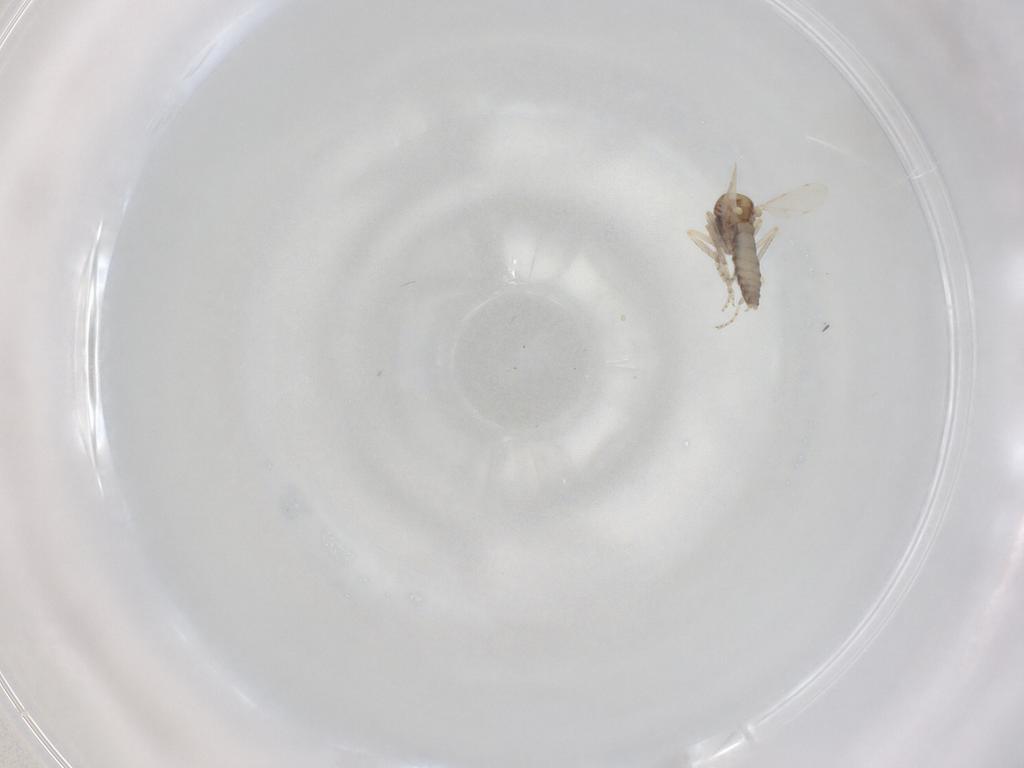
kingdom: Animalia
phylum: Arthropoda
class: Insecta
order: Diptera
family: Ceratopogonidae
